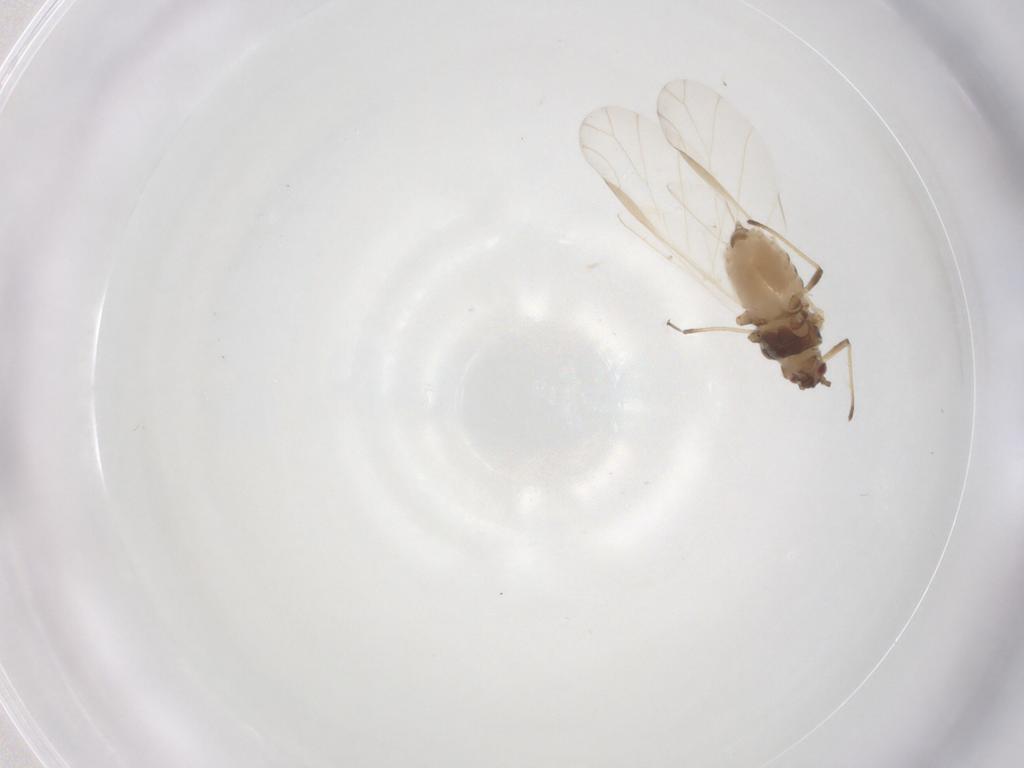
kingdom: Animalia
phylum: Arthropoda
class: Insecta
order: Hemiptera
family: Aphididae
